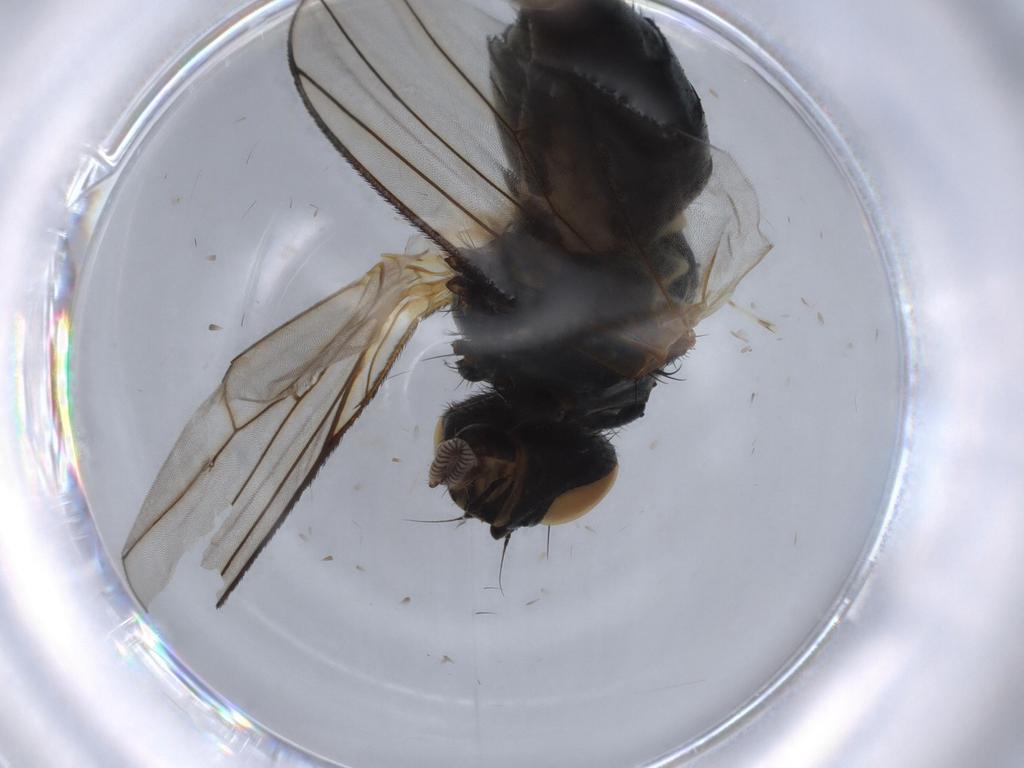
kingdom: Animalia
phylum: Arthropoda
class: Insecta
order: Diptera
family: Muscidae
